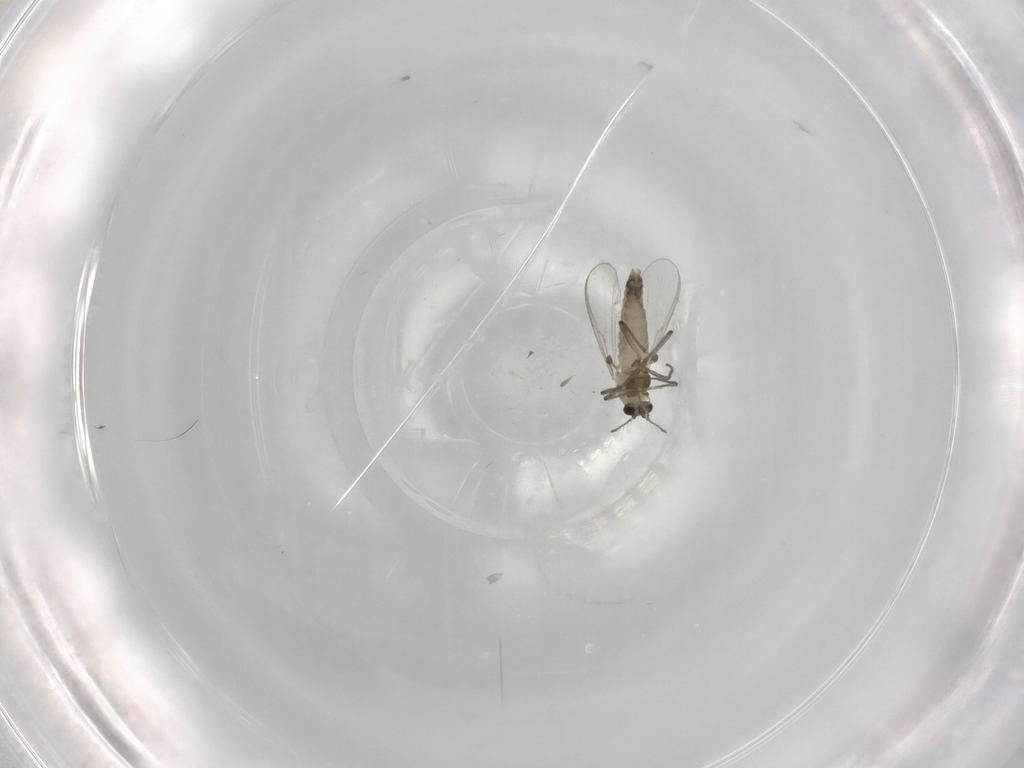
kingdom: Animalia
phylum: Arthropoda
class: Insecta
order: Diptera
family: Chironomidae
